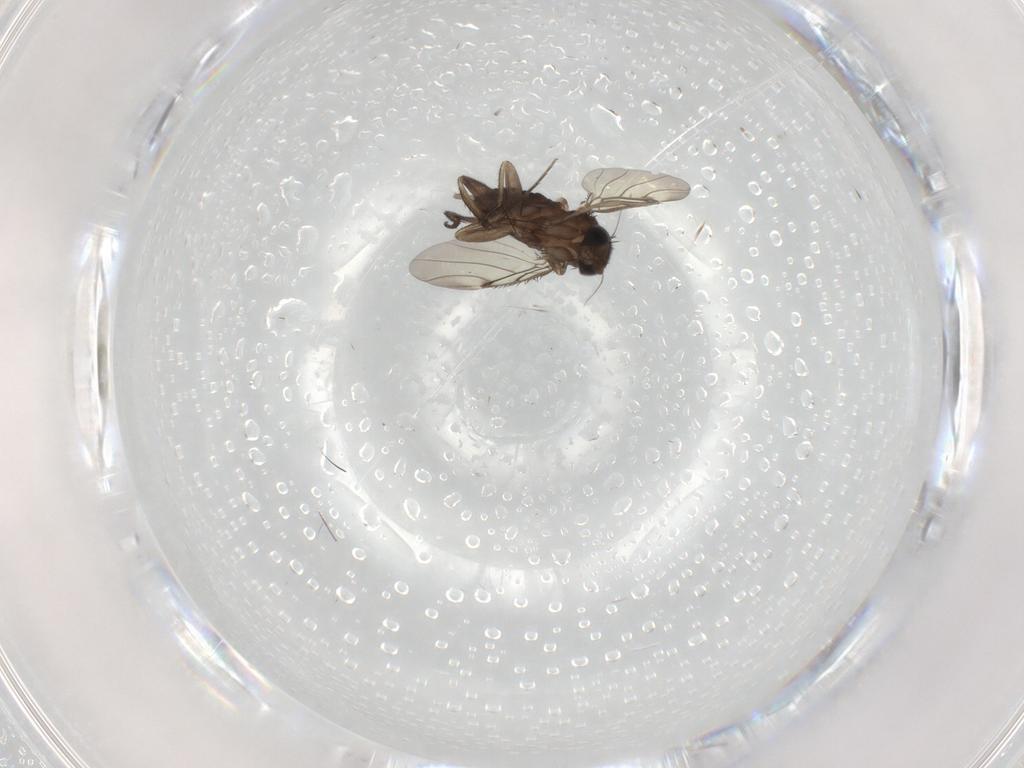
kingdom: Animalia
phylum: Arthropoda
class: Insecta
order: Diptera
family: Phoridae
